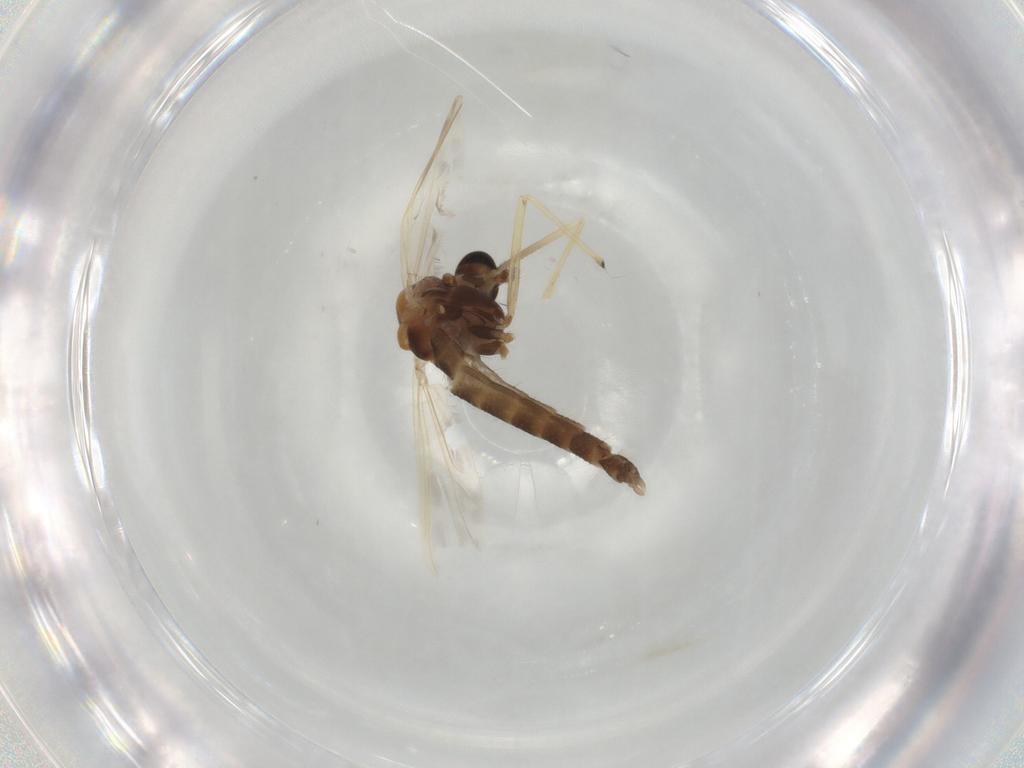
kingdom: Animalia
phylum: Arthropoda
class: Insecta
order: Diptera
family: Chironomidae
